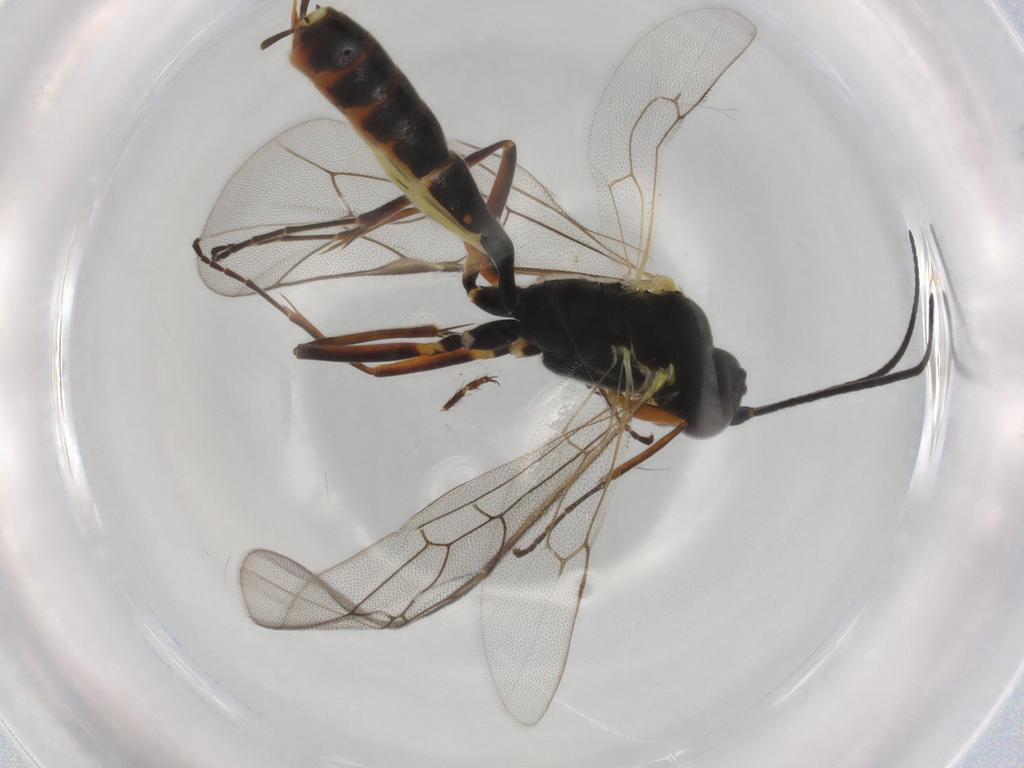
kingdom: Animalia
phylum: Arthropoda
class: Insecta
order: Hymenoptera
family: Ichneumonidae
